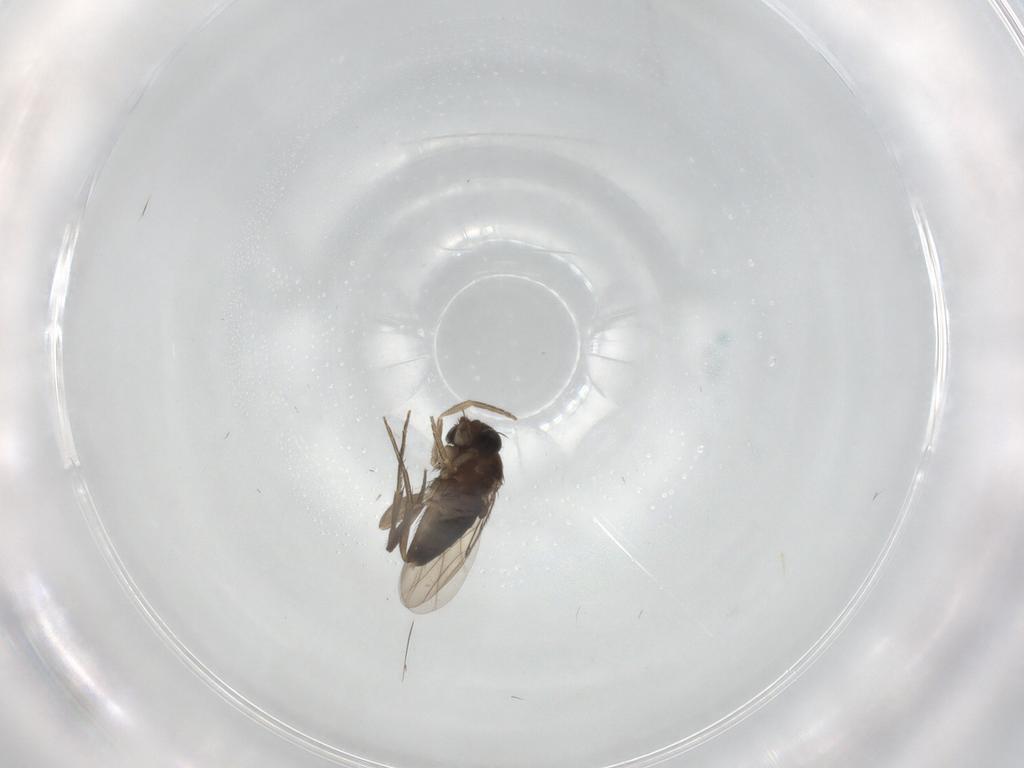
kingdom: Animalia
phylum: Arthropoda
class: Insecta
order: Diptera
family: Phoridae
